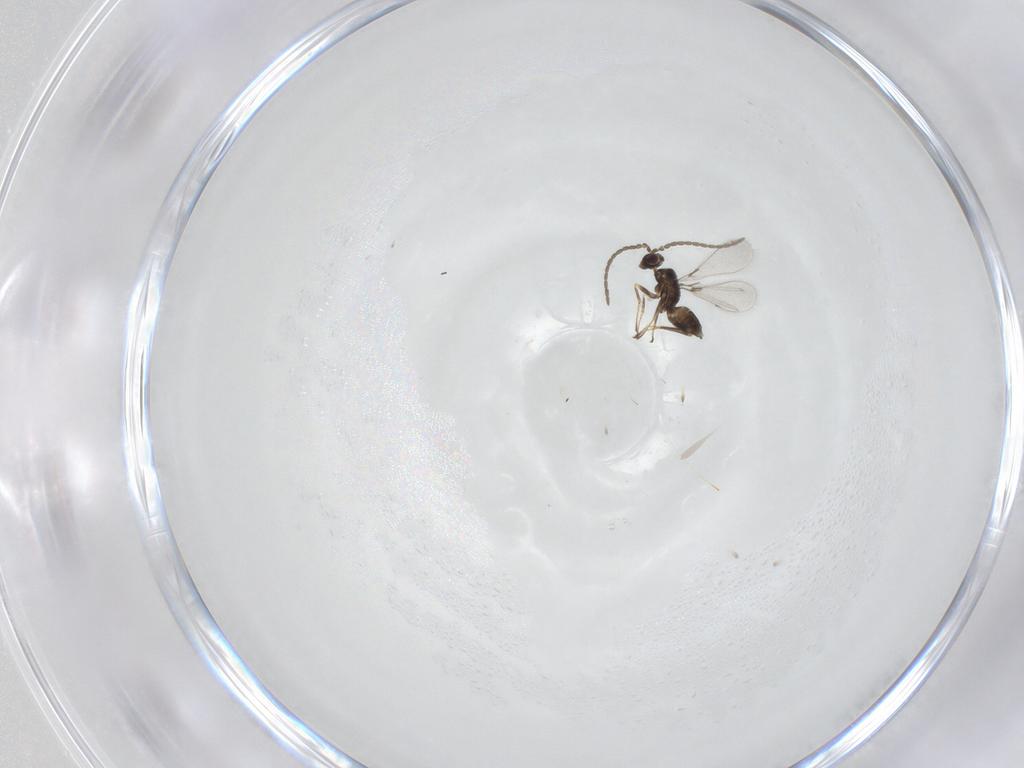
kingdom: Animalia
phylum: Arthropoda
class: Insecta
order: Hymenoptera
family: Mymaridae
